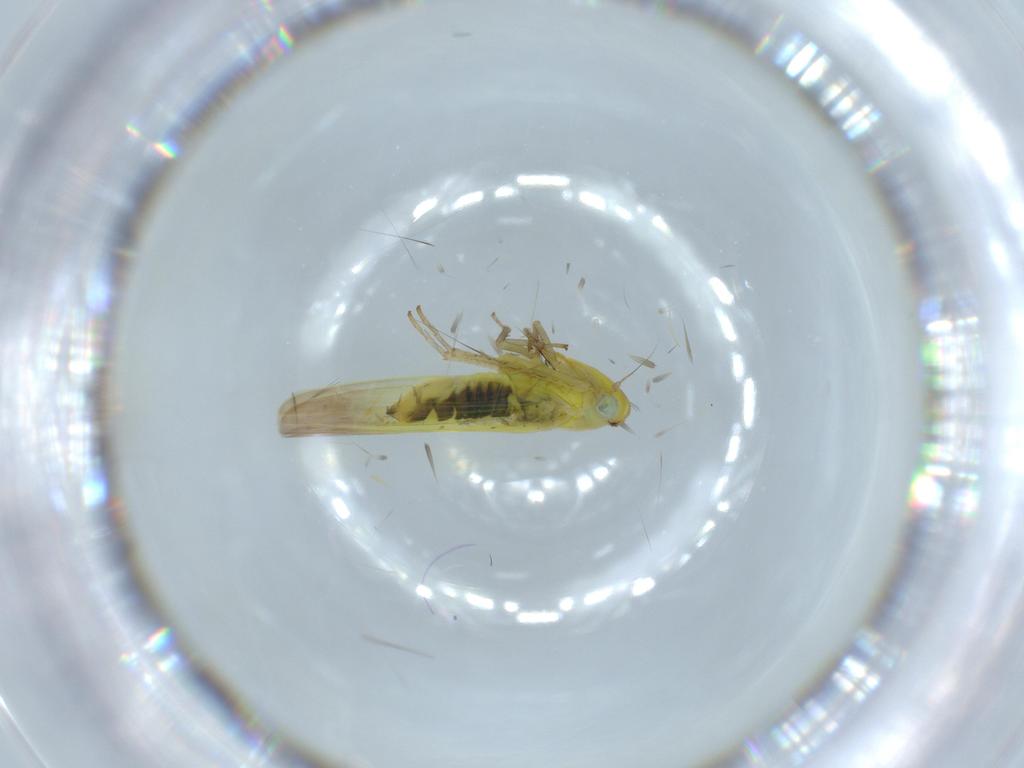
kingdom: Animalia
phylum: Arthropoda
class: Insecta
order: Hemiptera
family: Cicadellidae
